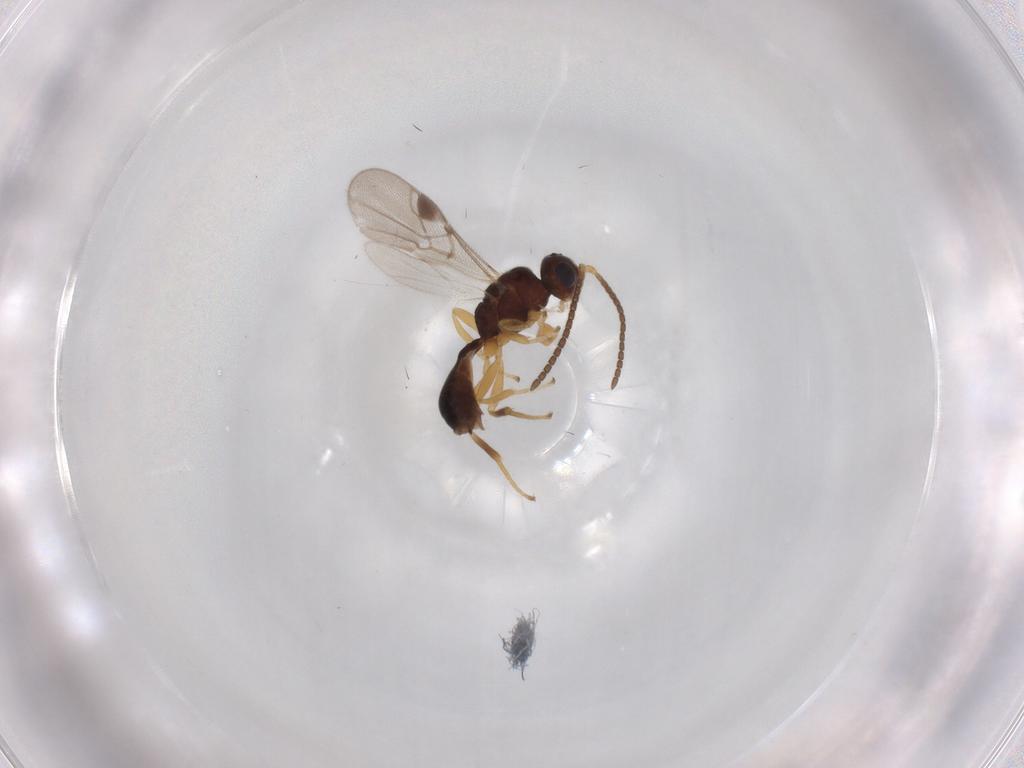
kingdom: Animalia
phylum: Arthropoda
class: Insecta
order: Hymenoptera
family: Braconidae
